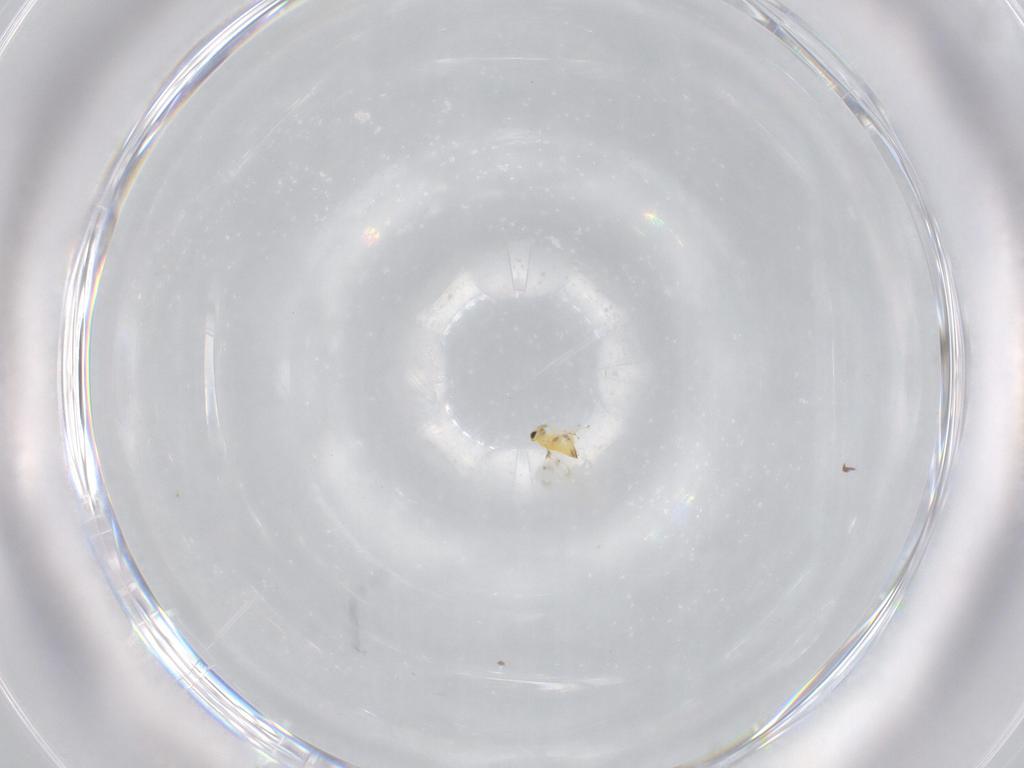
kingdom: Animalia
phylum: Arthropoda
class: Insecta
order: Hymenoptera
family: Trichogrammatidae
